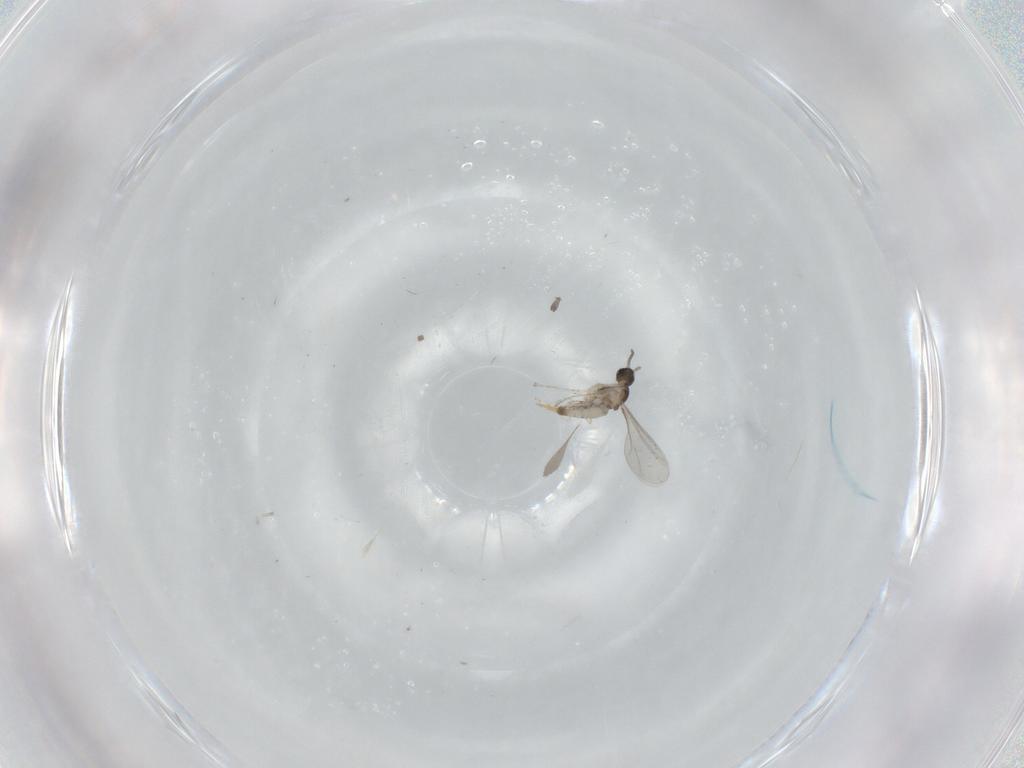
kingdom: Animalia
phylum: Arthropoda
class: Insecta
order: Diptera
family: Cecidomyiidae
